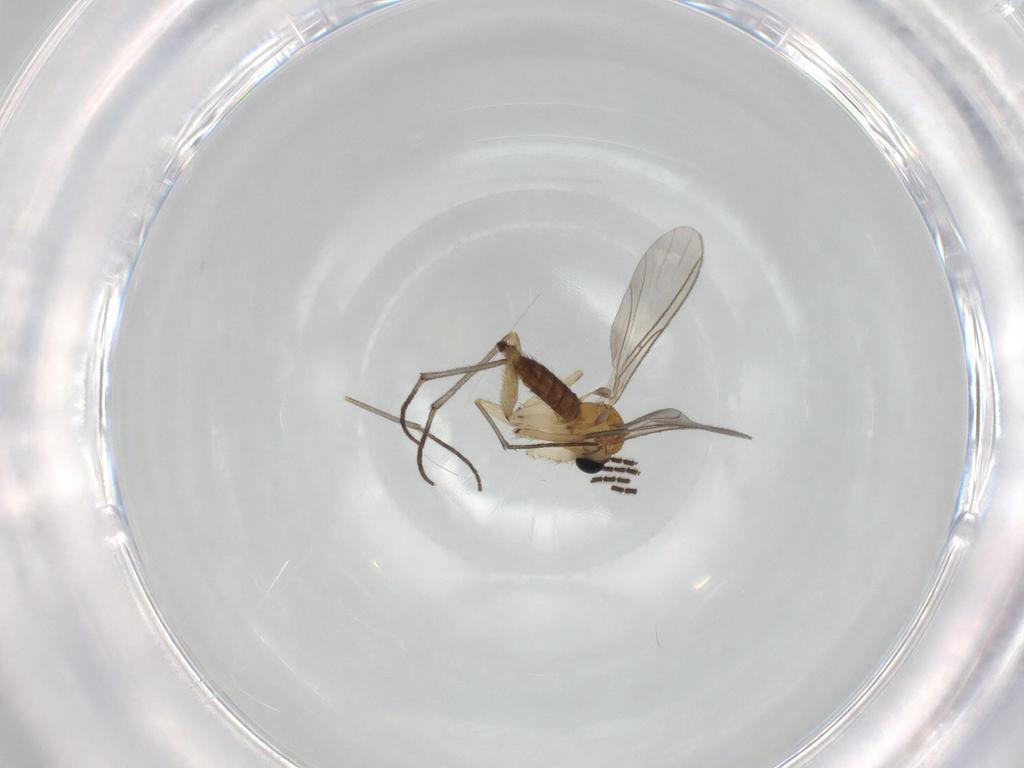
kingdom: Animalia
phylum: Arthropoda
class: Insecta
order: Diptera
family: Sciaridae
